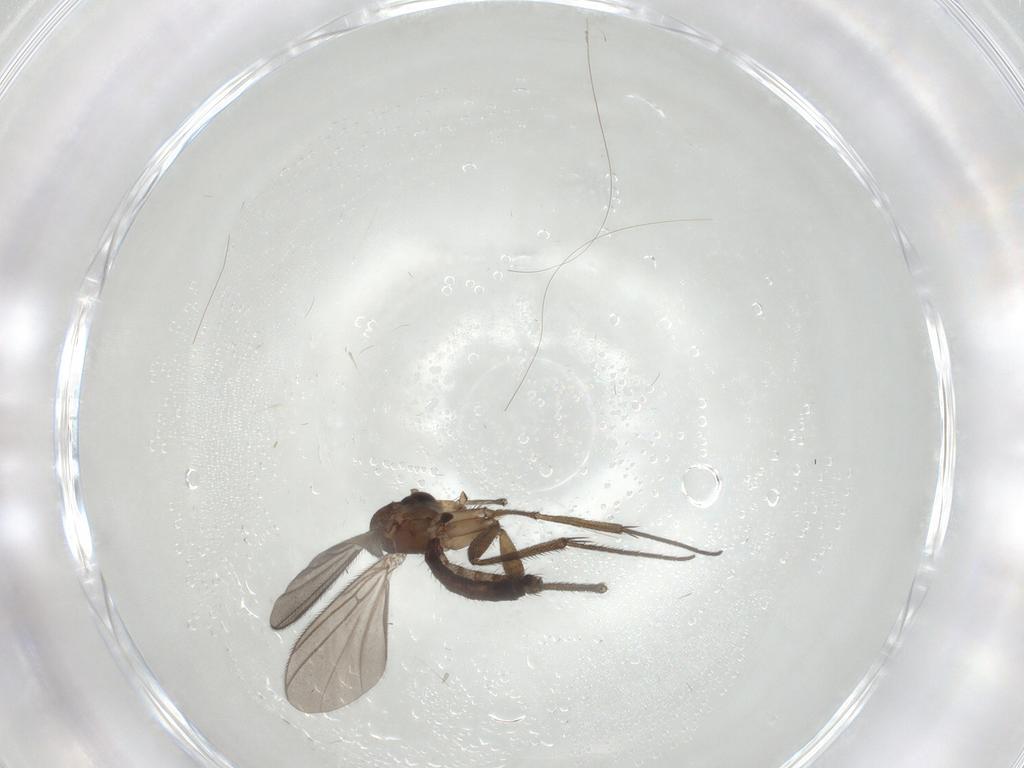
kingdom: Animalia
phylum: Arthropoda
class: Insecta
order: Diptera
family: Mycetophilidae
